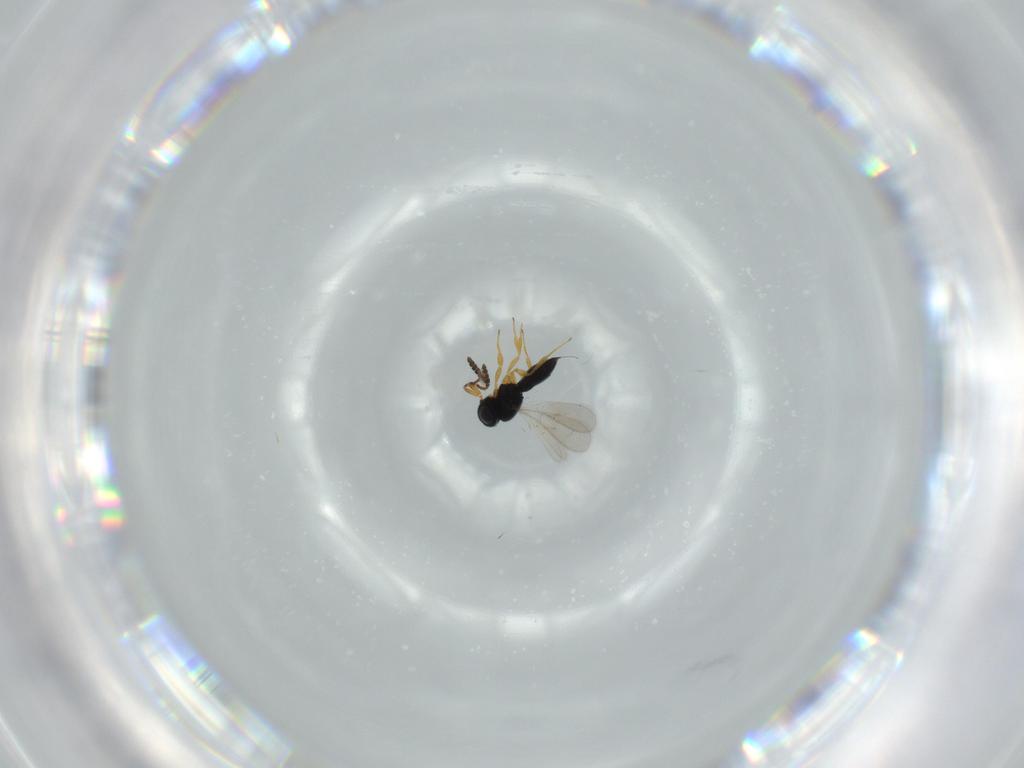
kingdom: Animalia
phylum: Arthropoda
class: Insecta
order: Hymenoptera
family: Scelionidae
